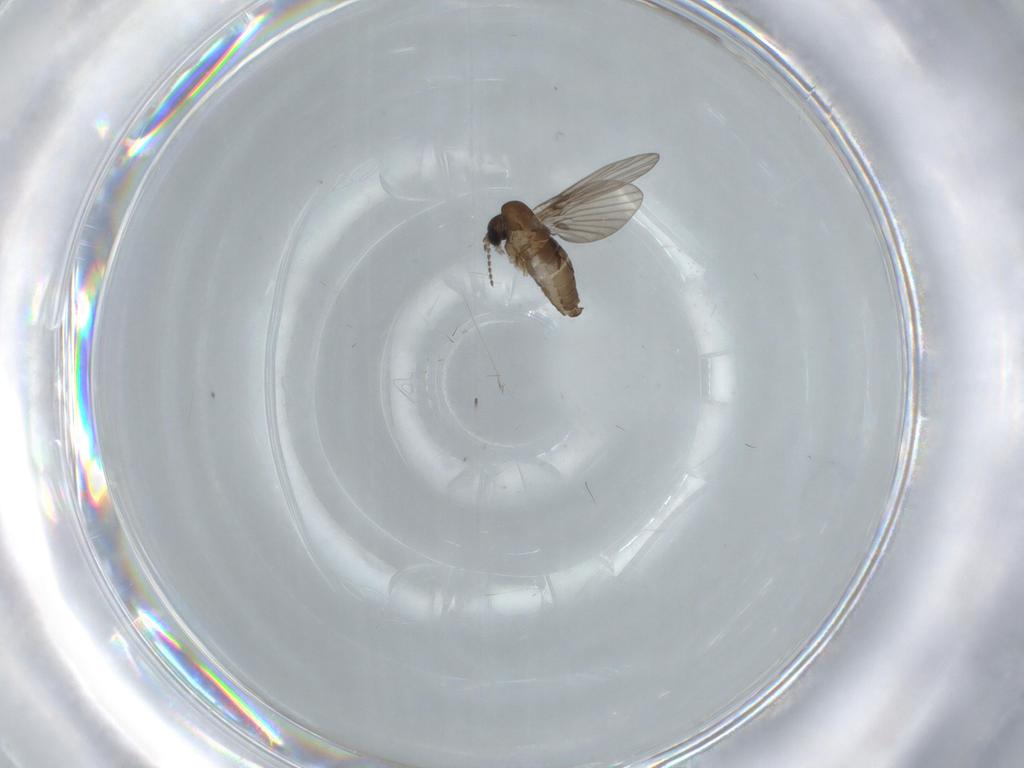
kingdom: Animalia
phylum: Arthropoda
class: Insecta
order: Diptera
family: Psychodidae
